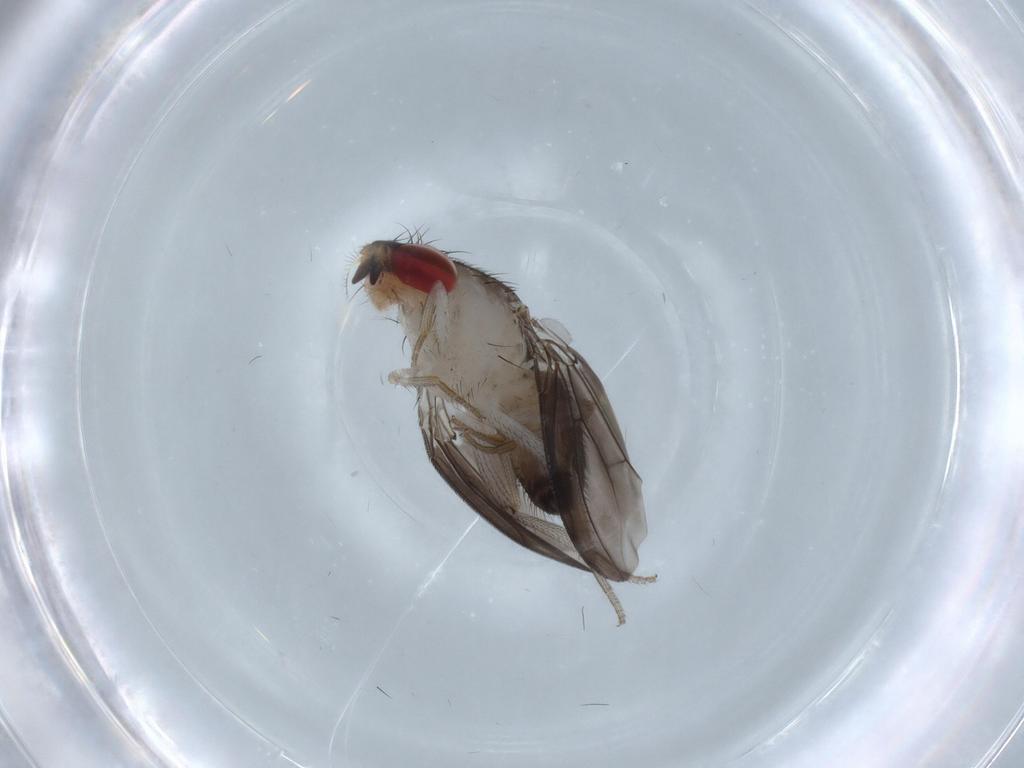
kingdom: Animalia
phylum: Arthropoda
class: Insecta
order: Diptera
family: Drosophilidae
